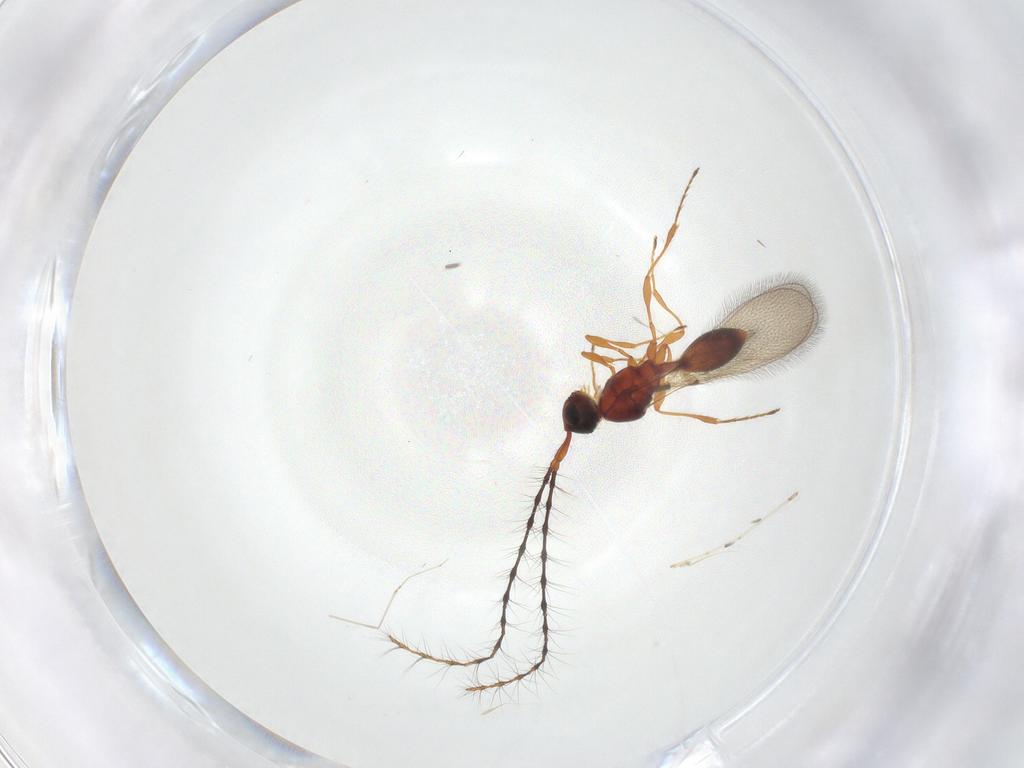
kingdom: Animalia
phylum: Arthropoda
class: Insecta
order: Hymenoptera
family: Diapriidae
